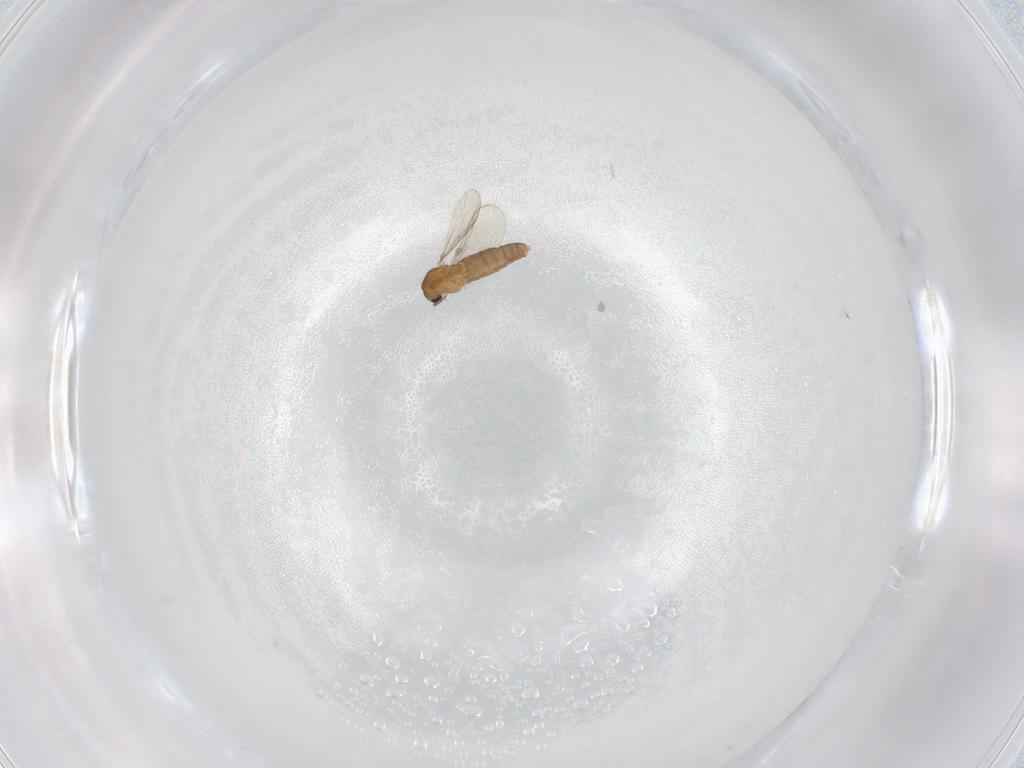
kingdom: Animalia
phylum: Arthropoda
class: Insecta
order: Diptera
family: Chironomidae
